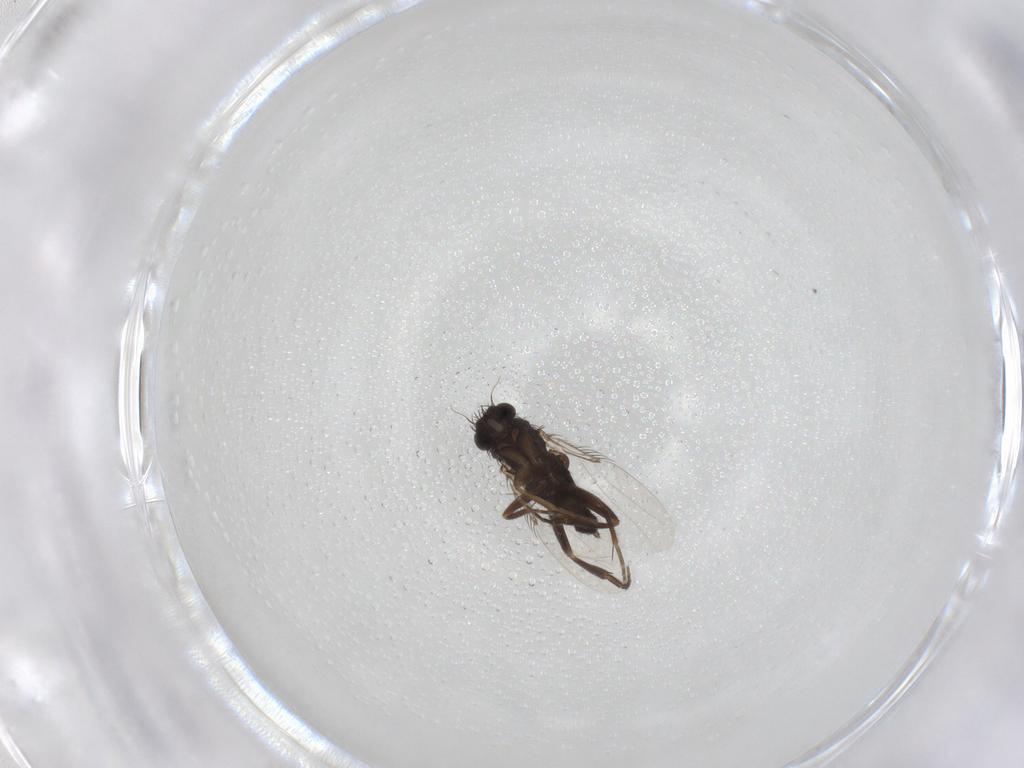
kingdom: Animalia
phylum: Arthropoda
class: Insecta
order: Diptera
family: Phoridae
